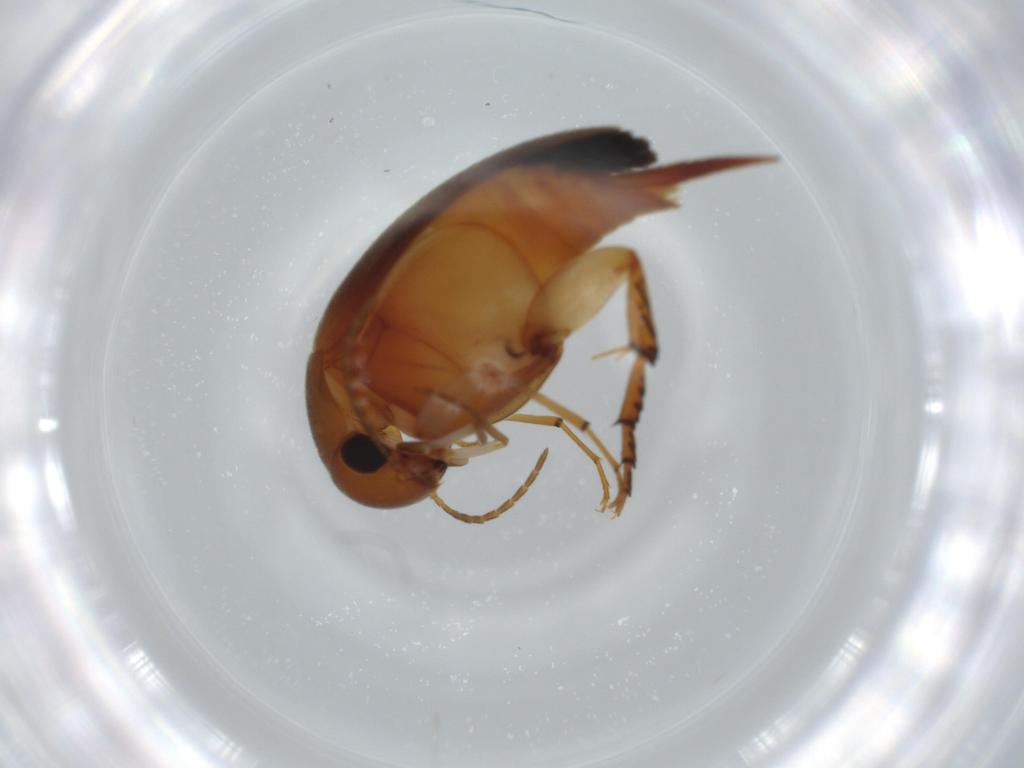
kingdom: Animalia
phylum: Arthropoda
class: Insecta
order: Coleoptera
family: Mordellidae
